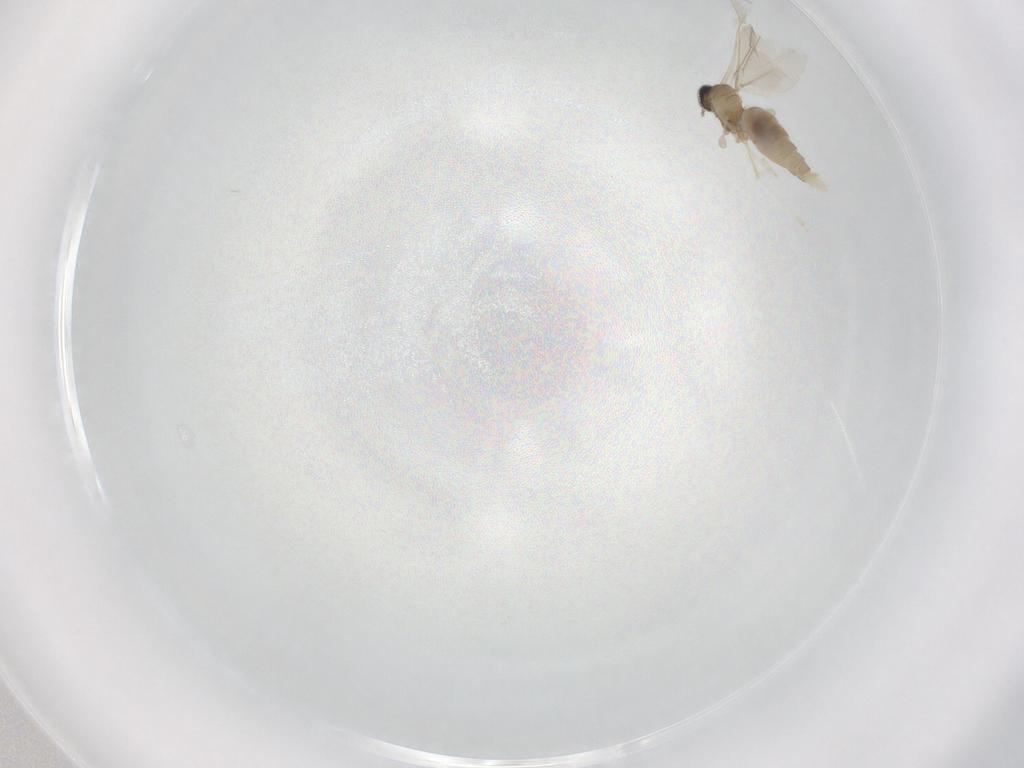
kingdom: Animalia
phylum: Arthropoda
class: Insecta
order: Diptera
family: Cecidomyiidae
